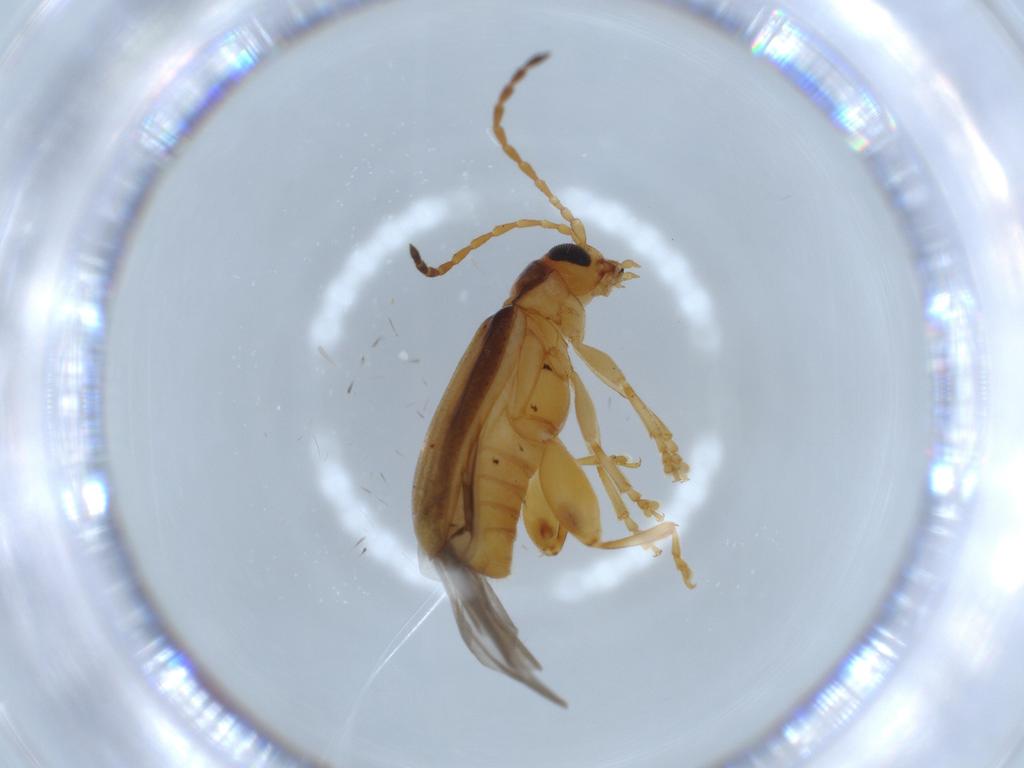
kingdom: Animalia
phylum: Arthropoda
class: Insecta
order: Coleoptera
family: Chrysomelidae
